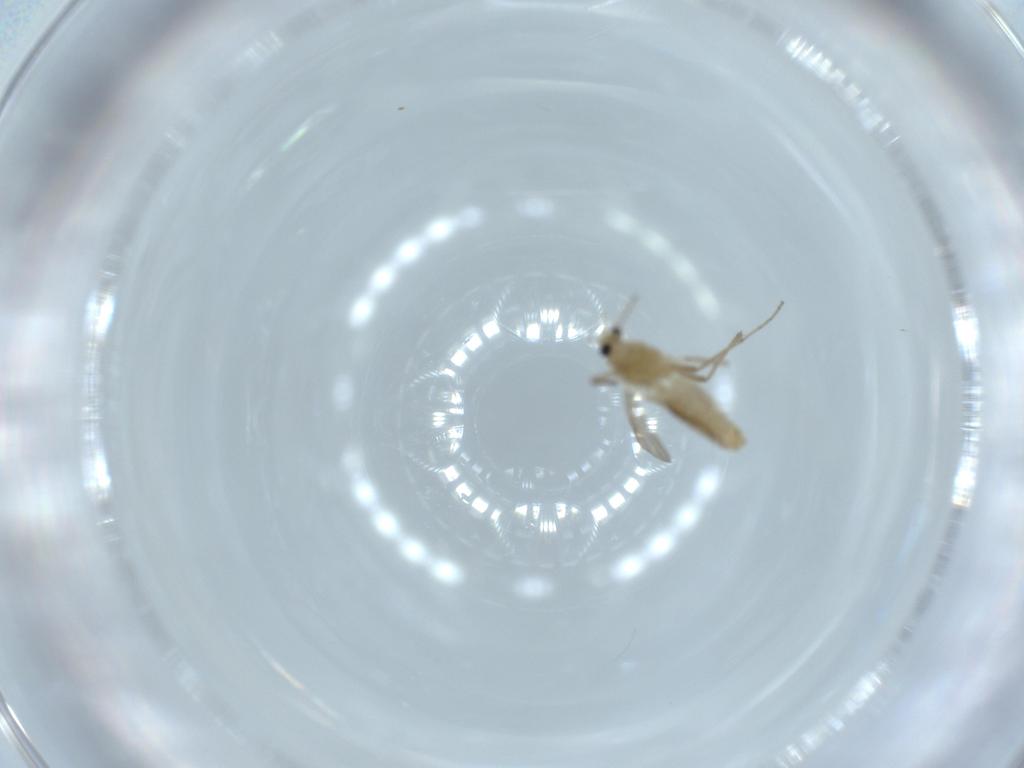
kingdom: Animalia
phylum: Arthropoda
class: Insecta
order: Diptera
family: Chironomidae
